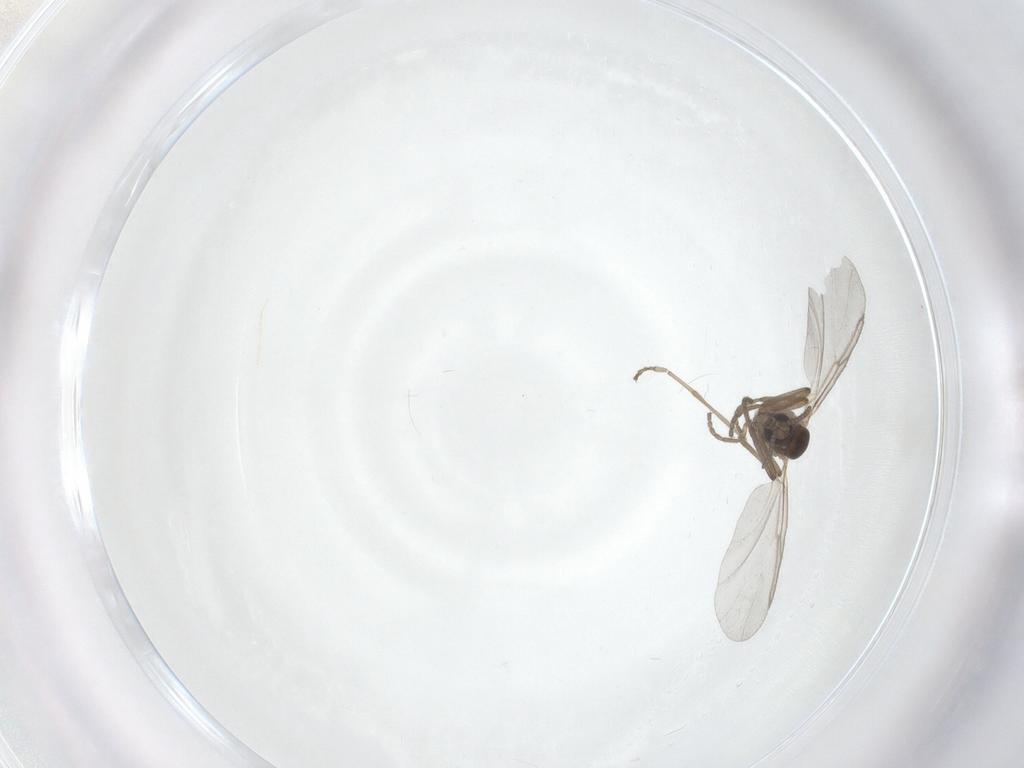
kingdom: Animalia
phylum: Arthropoda
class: Insecta
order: Diptera
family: Cecidomyiidae
